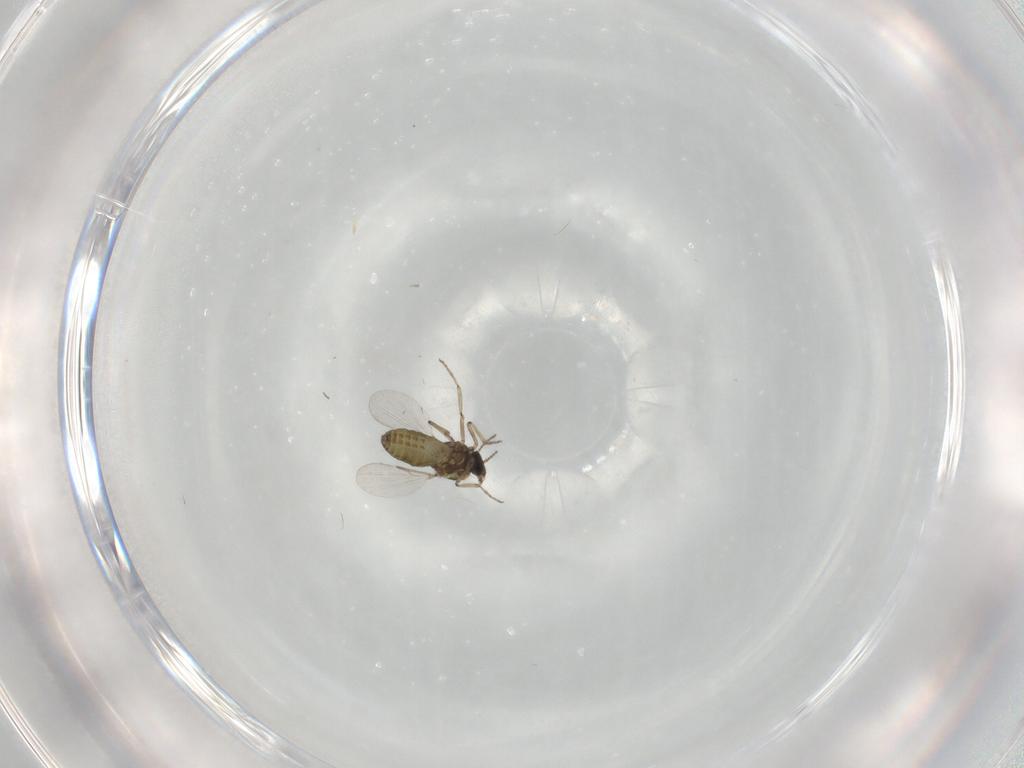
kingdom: Animalia
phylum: Arthropoda
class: Insecta
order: Diptera
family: Ceratopogonidae
